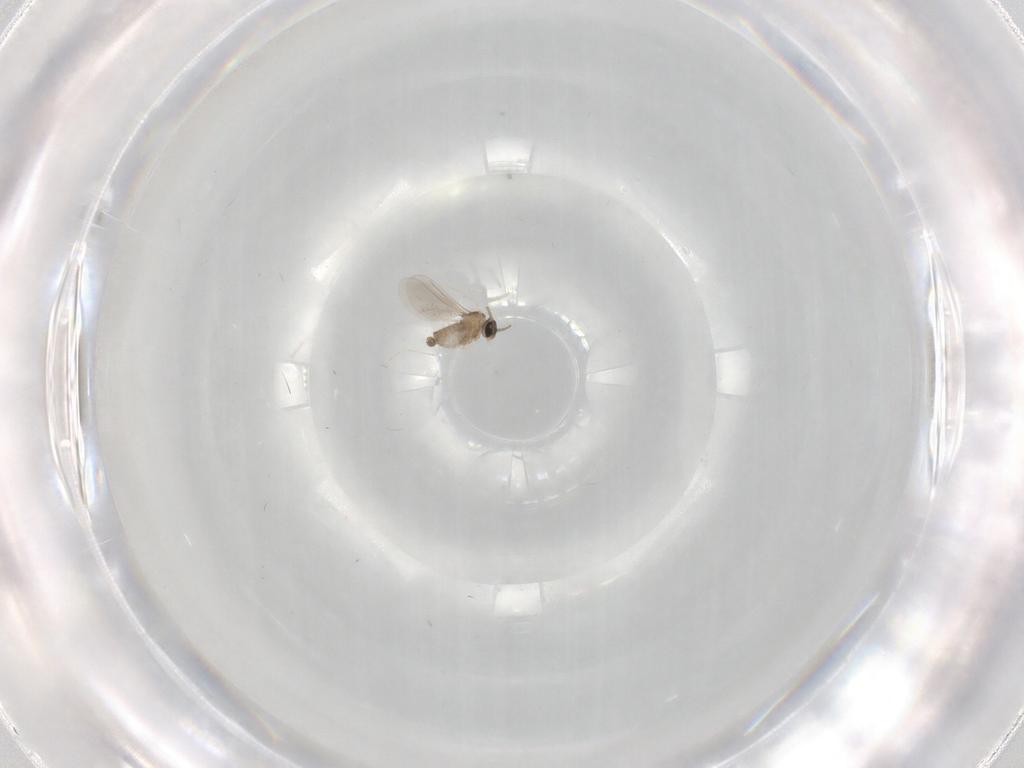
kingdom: Animalia
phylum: Arthropoda
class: Insecta
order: Diptera
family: Cecidomyiidae
